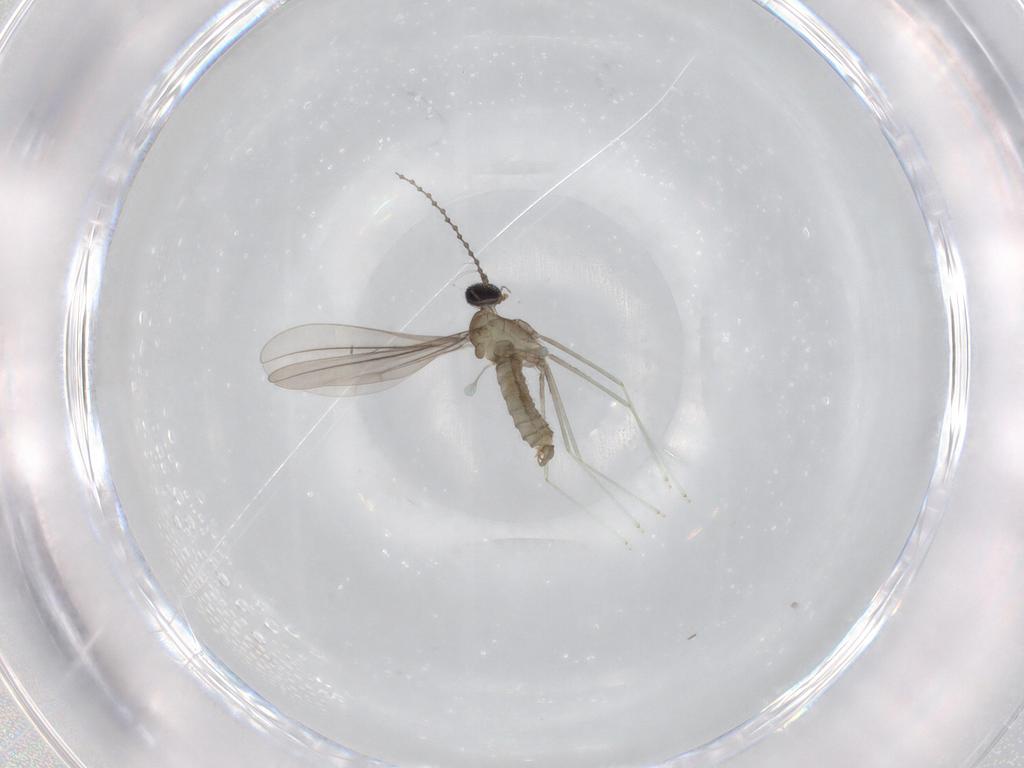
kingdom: Animalia
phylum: Arthropoda
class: Insecta
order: Diptera
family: Cecidomyiidae
